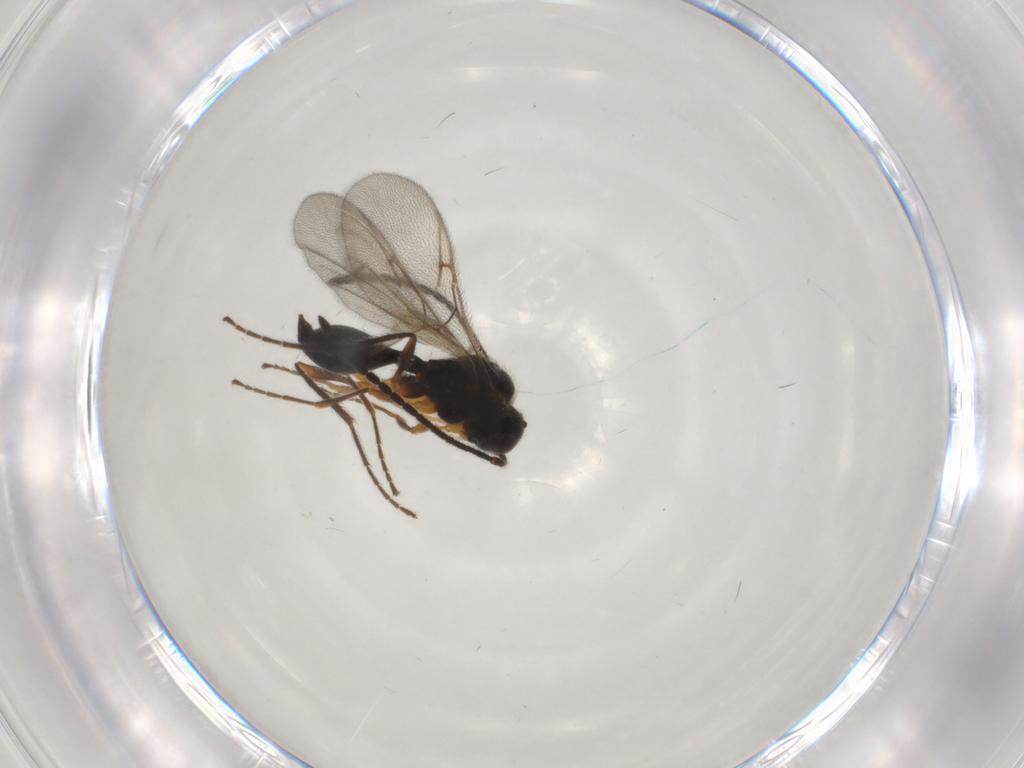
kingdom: Animalia
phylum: Arthropoda
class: Insecta
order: Hymenoptera
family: Diapriidae
